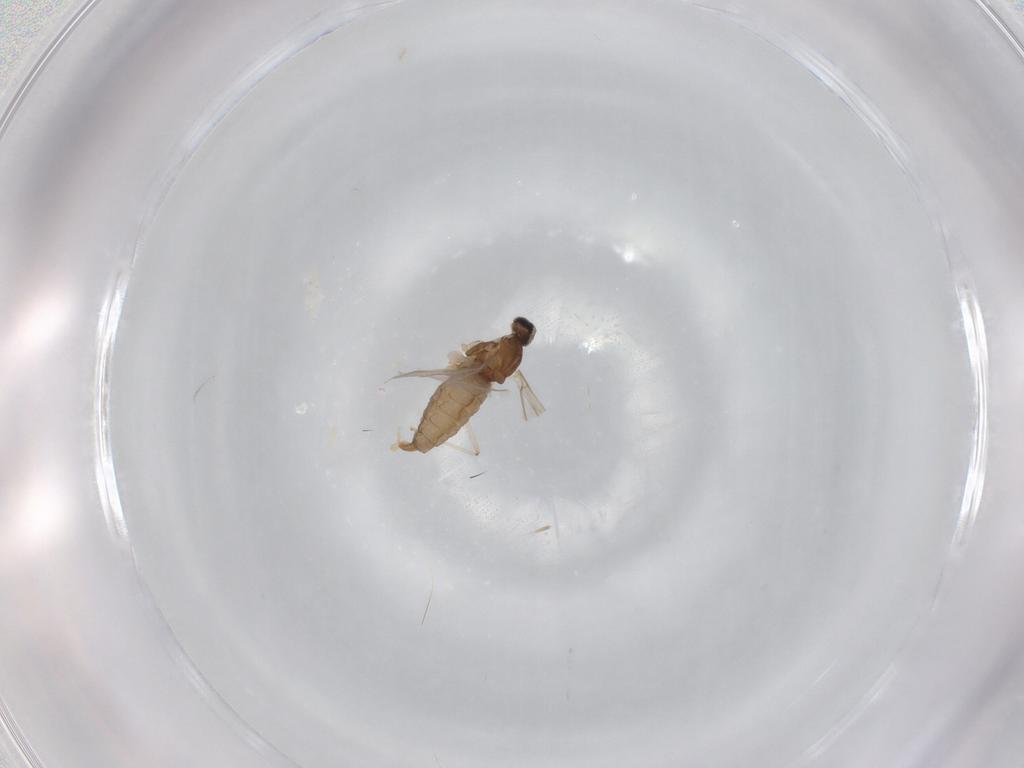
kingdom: Animalia
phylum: Arthropoda
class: Insecta
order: Diptera
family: Cecidomyiidae
